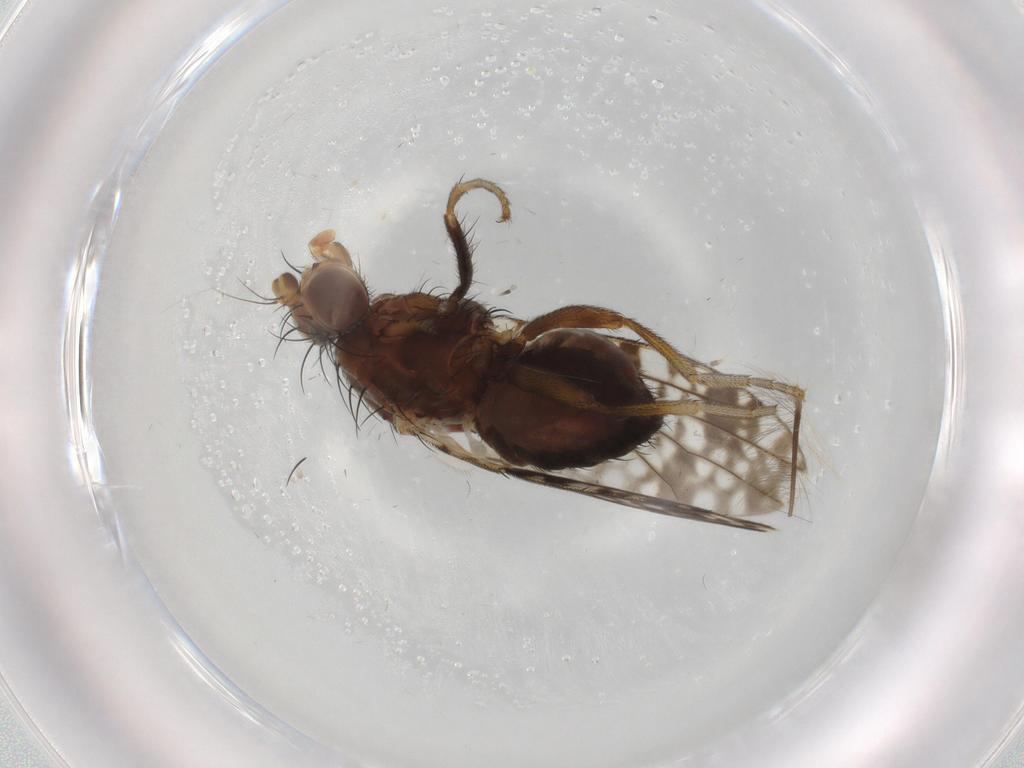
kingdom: Animalia
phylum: Arthropoda
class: Insecta
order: Diptera
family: Tephritidae
